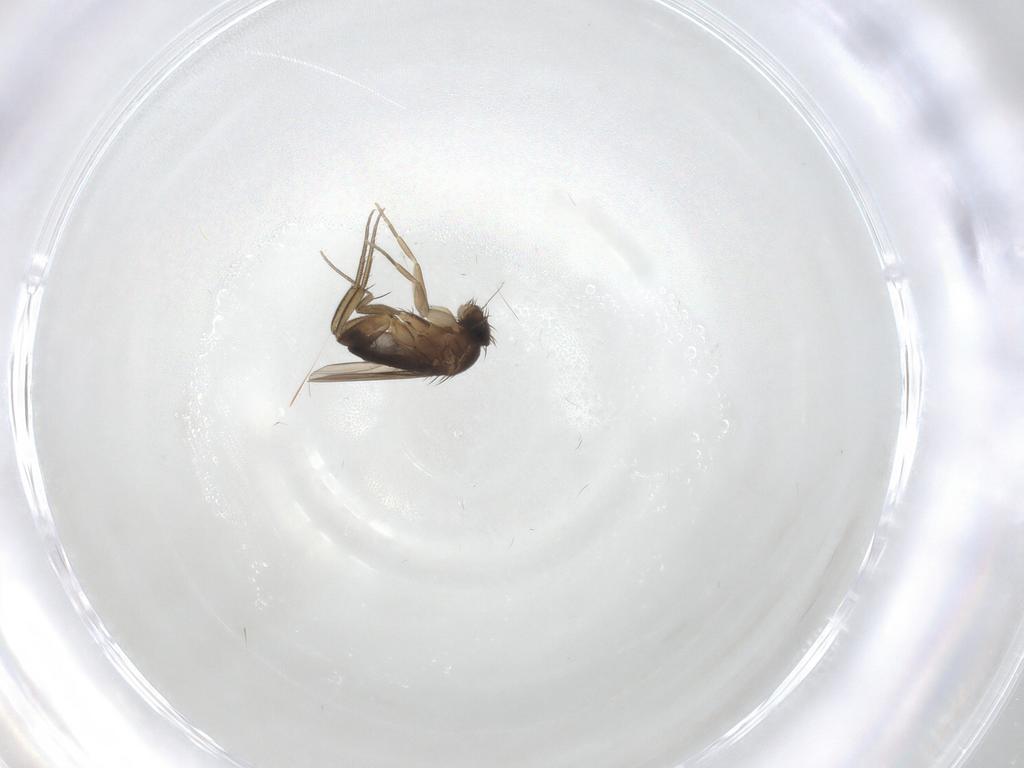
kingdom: Animalia
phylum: Arthropoda
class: Insecta
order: Diptera
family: Phoridae
